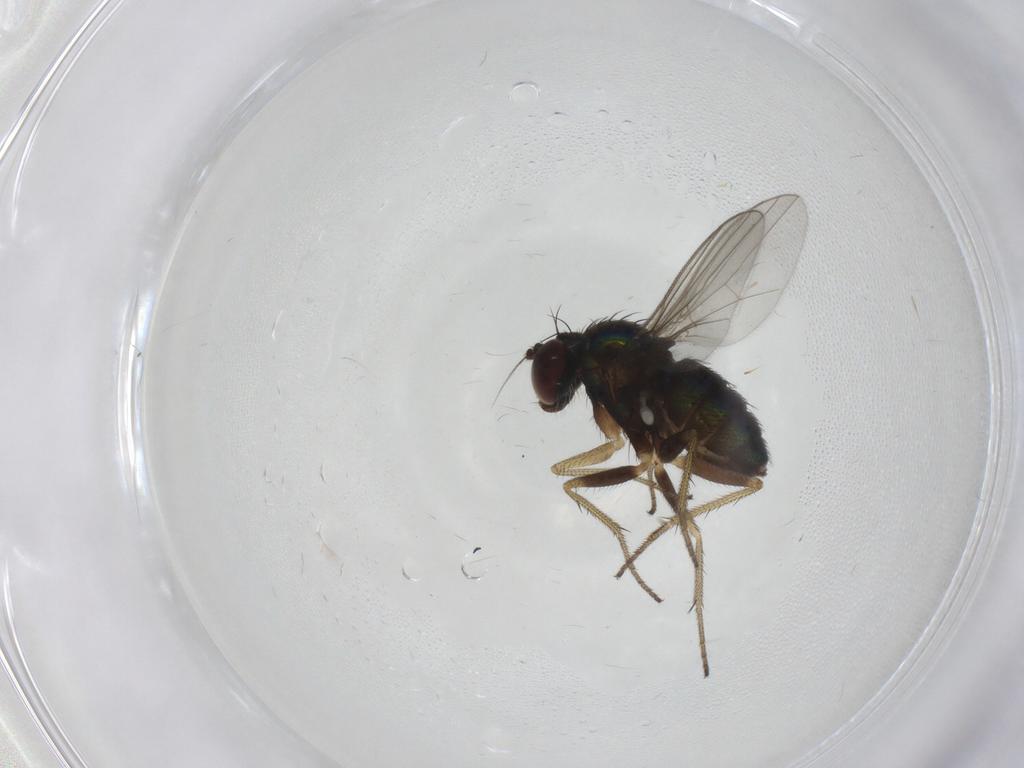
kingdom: Animalia
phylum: Arthropoda
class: Insecta
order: Diptera
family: Chironomidae
